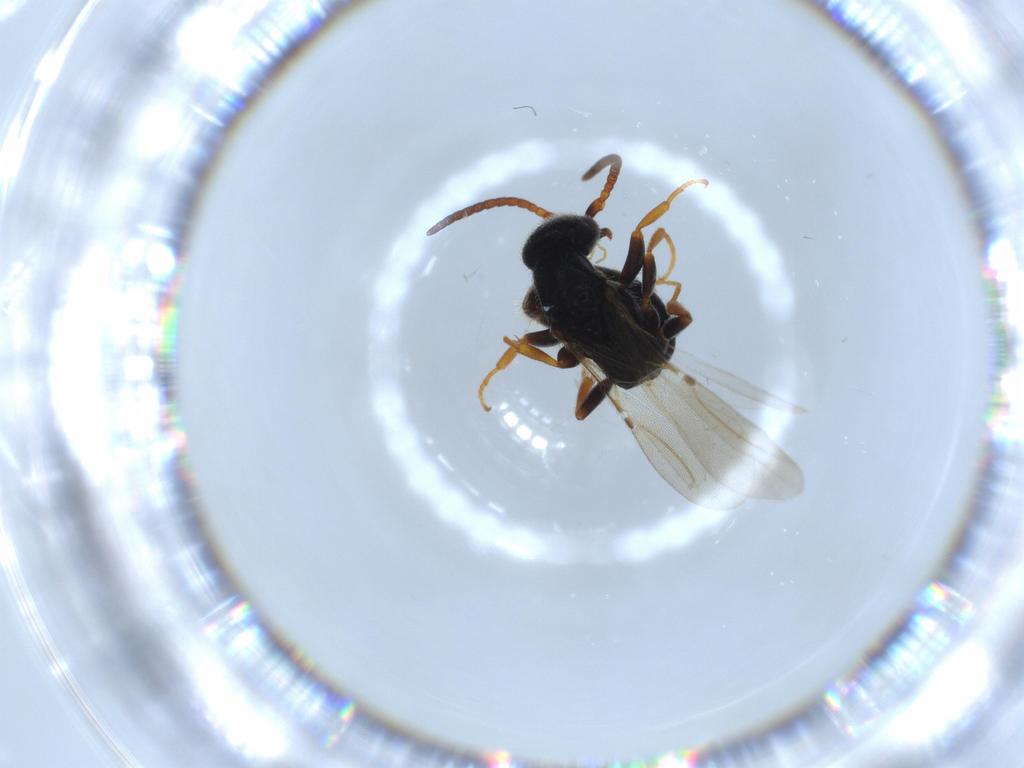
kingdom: Animalia
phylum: Arthropoda
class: Insecta
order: Hymenoptera
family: Bethylidae
